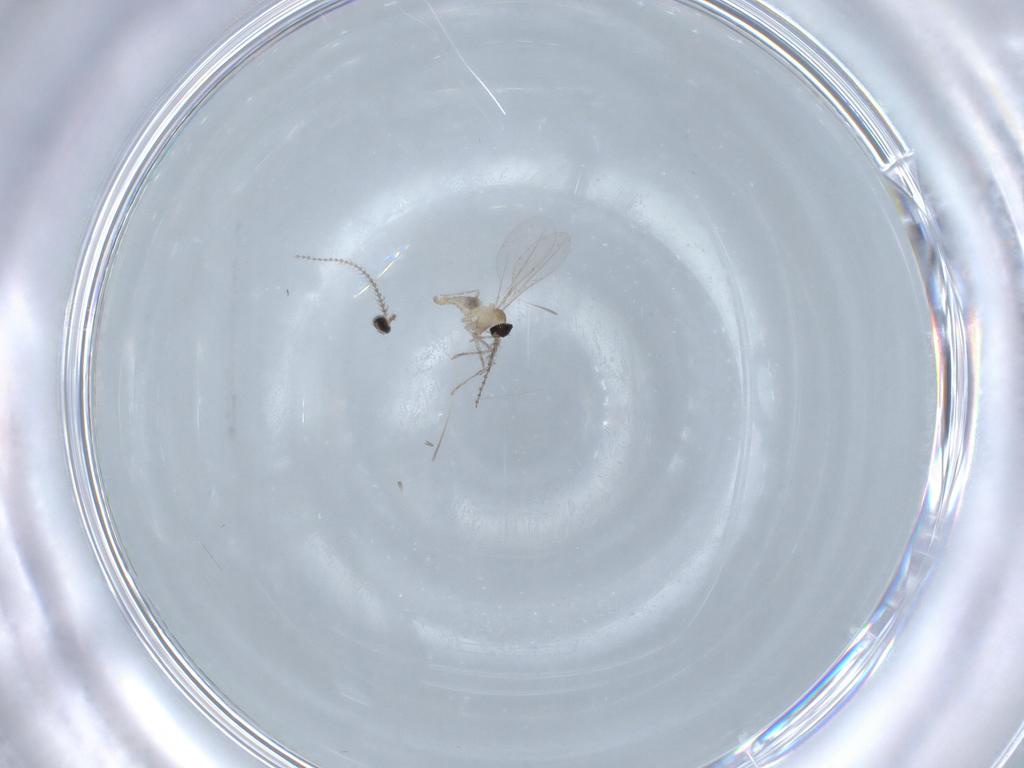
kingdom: Animalia
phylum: Arthropoda
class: Insecta
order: Diptera
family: Cecidomyiidae
